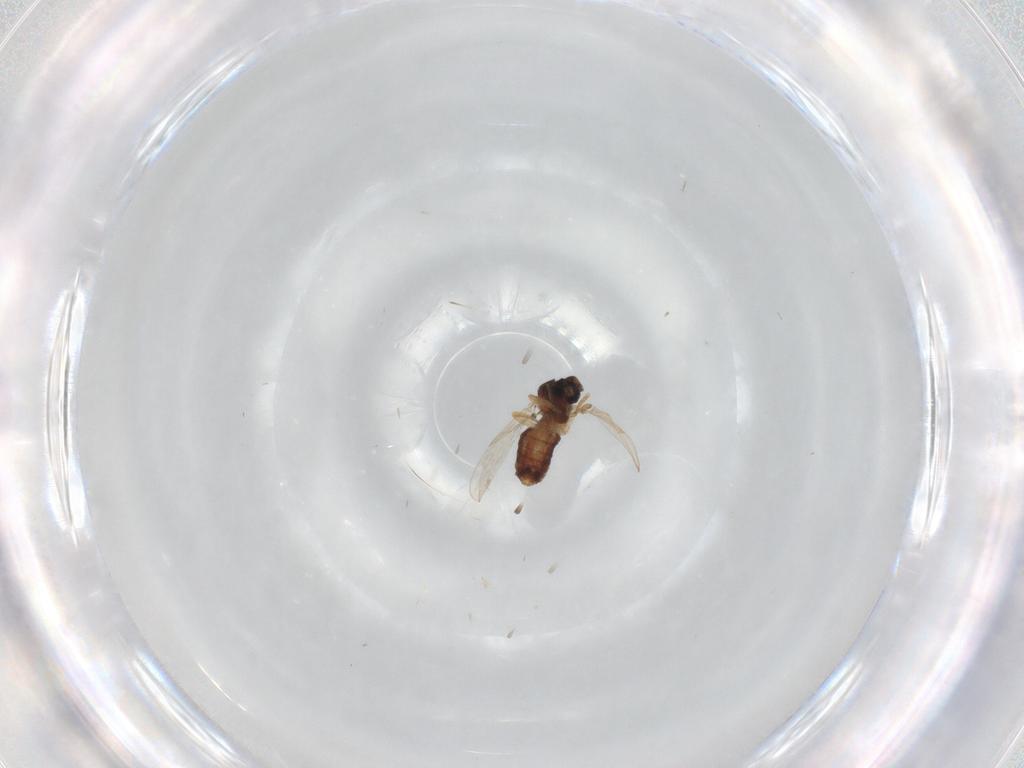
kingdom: Animalia
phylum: Arthropoda
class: Insecta
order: Diptera
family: Ceratopogonidae
